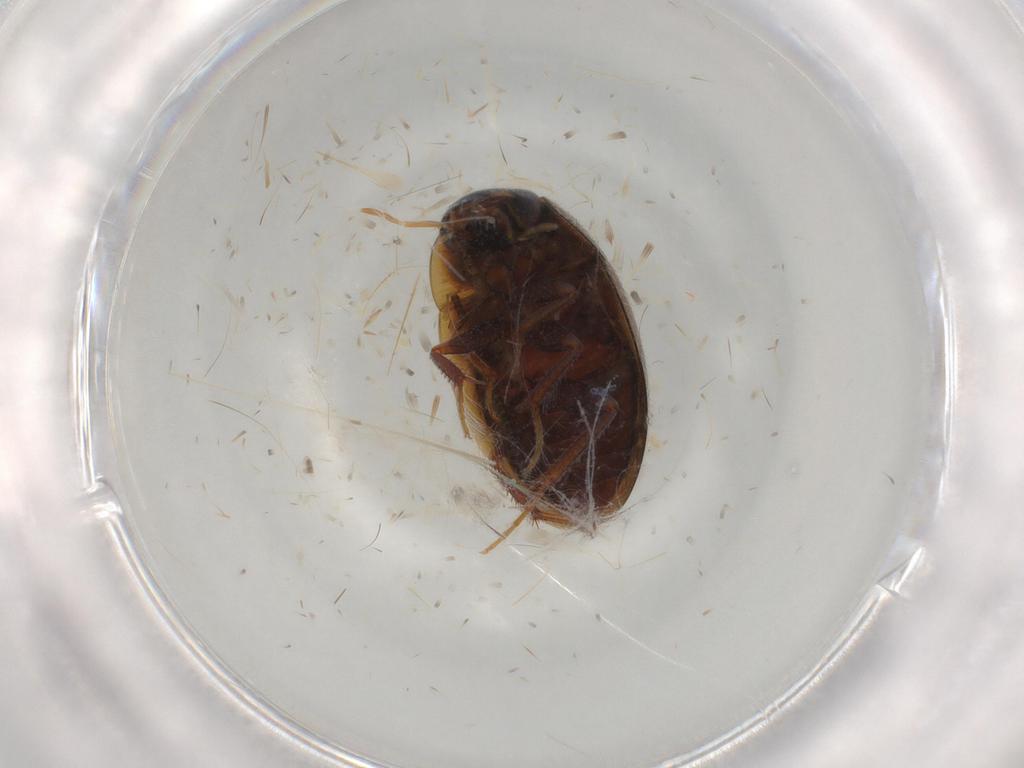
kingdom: Animalia
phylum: Arthropoda
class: Insecta
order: Coleoptera
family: Hydrophilidae
